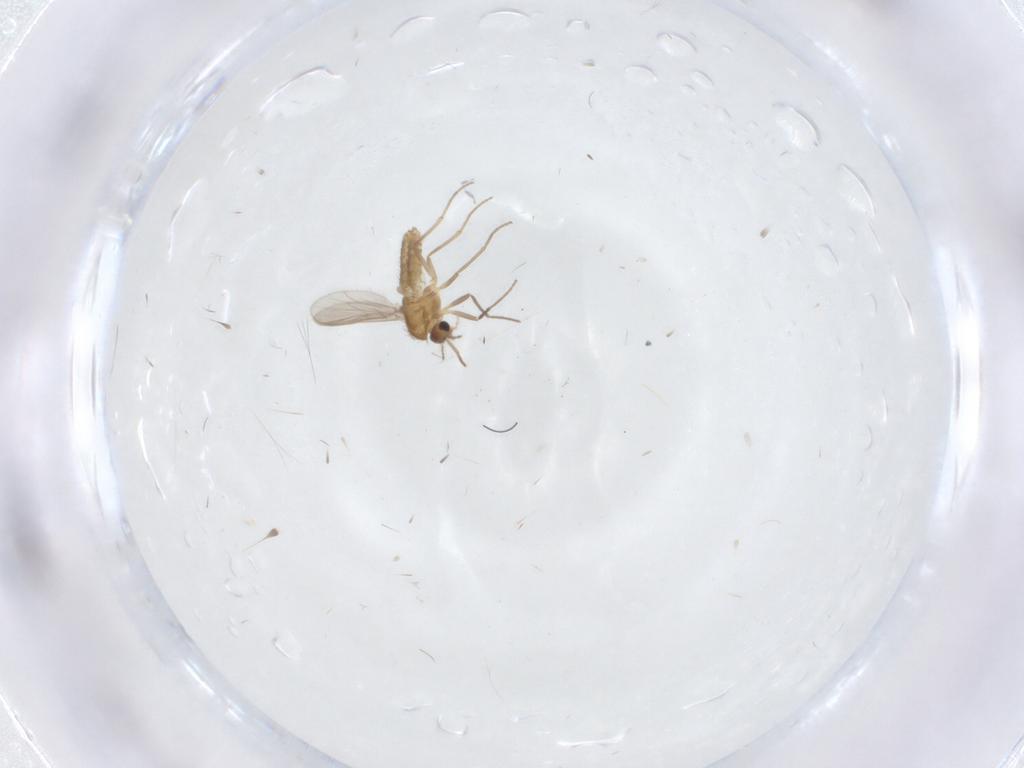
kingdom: Animalia
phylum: Arthropoda
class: Insecta
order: Diptera
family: Chironomidae
